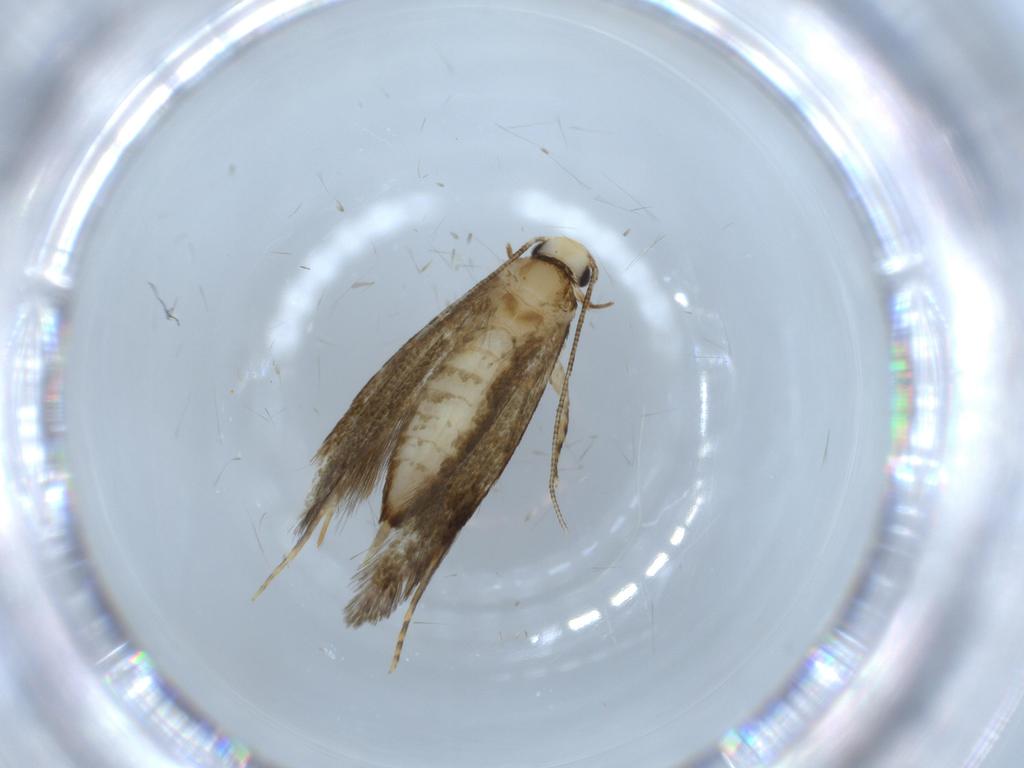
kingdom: Animalia
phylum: Arthropoda
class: Insecta
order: Lepidoptera
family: Tineidae
